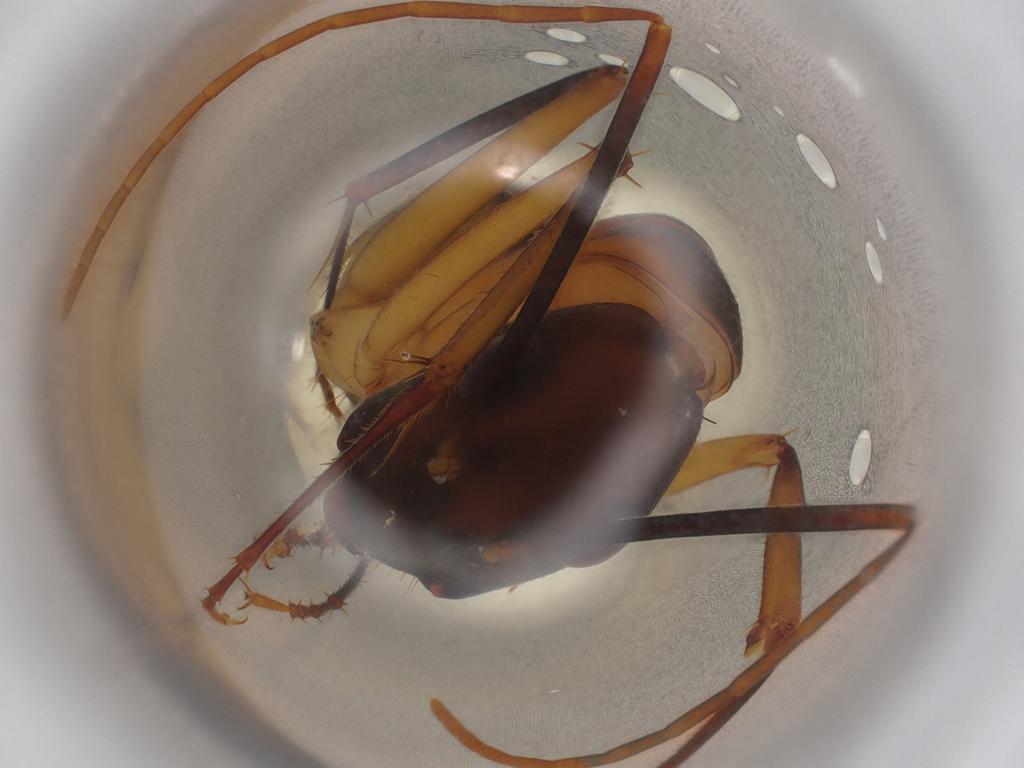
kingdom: Animalia
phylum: Arthropoda
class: Insecta
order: Hymenoptera
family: Formicidae
